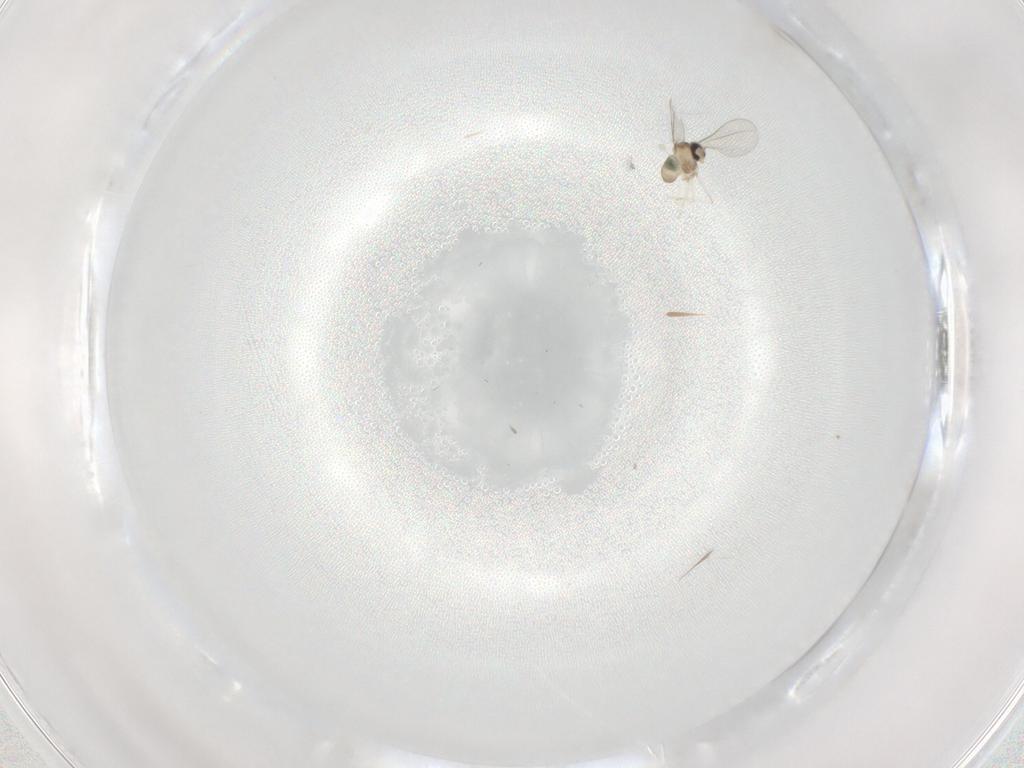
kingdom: Animalia
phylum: Arthropoda
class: Insecta
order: Diptera
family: Cecidomyiidae
